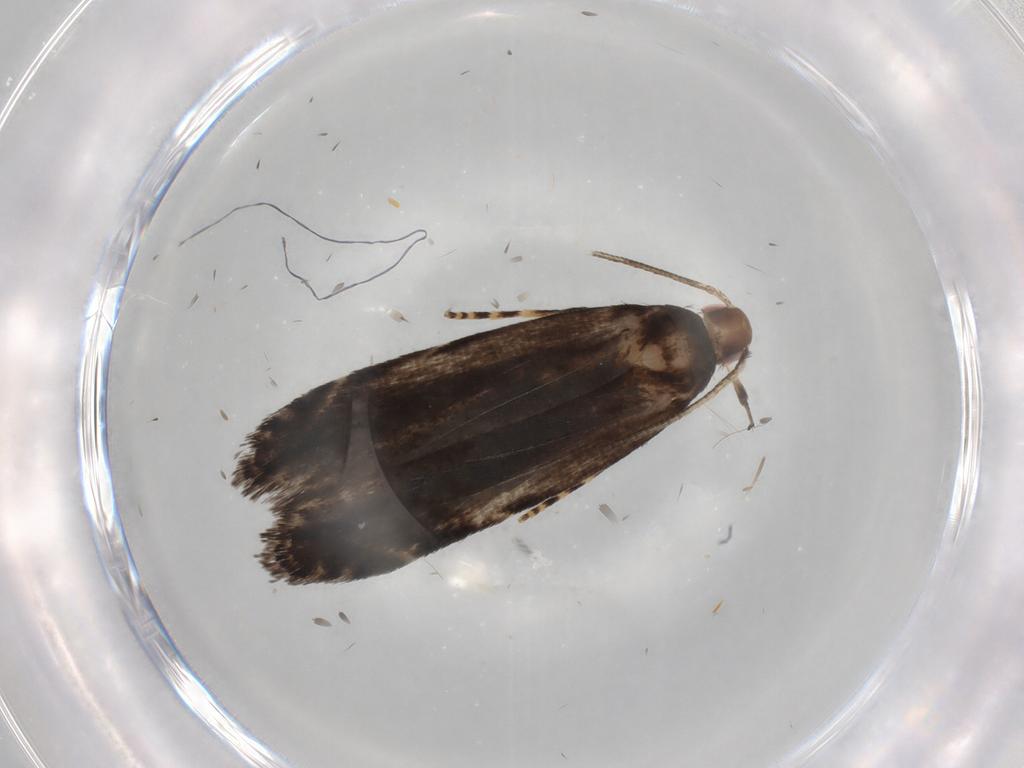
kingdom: Animalia
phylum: Arthropoda
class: Insecta
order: Lepidoptera
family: Gelechiidae
